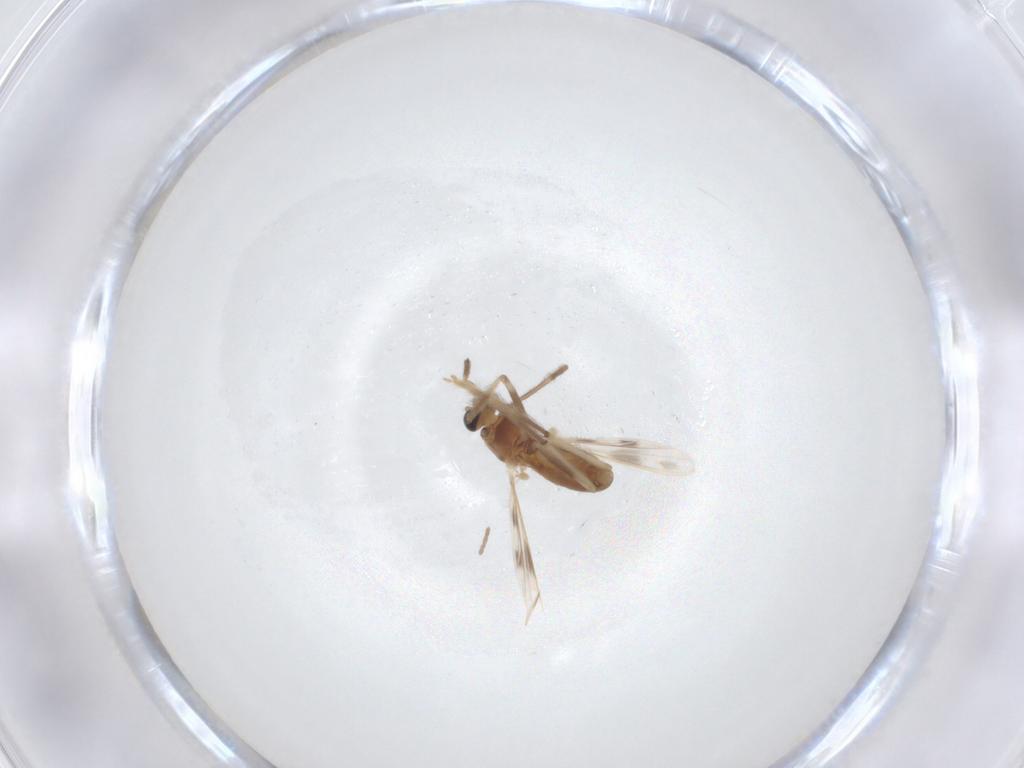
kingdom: Animalia
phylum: Arthropoda
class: Insecta
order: Diptera
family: Chironomidae
